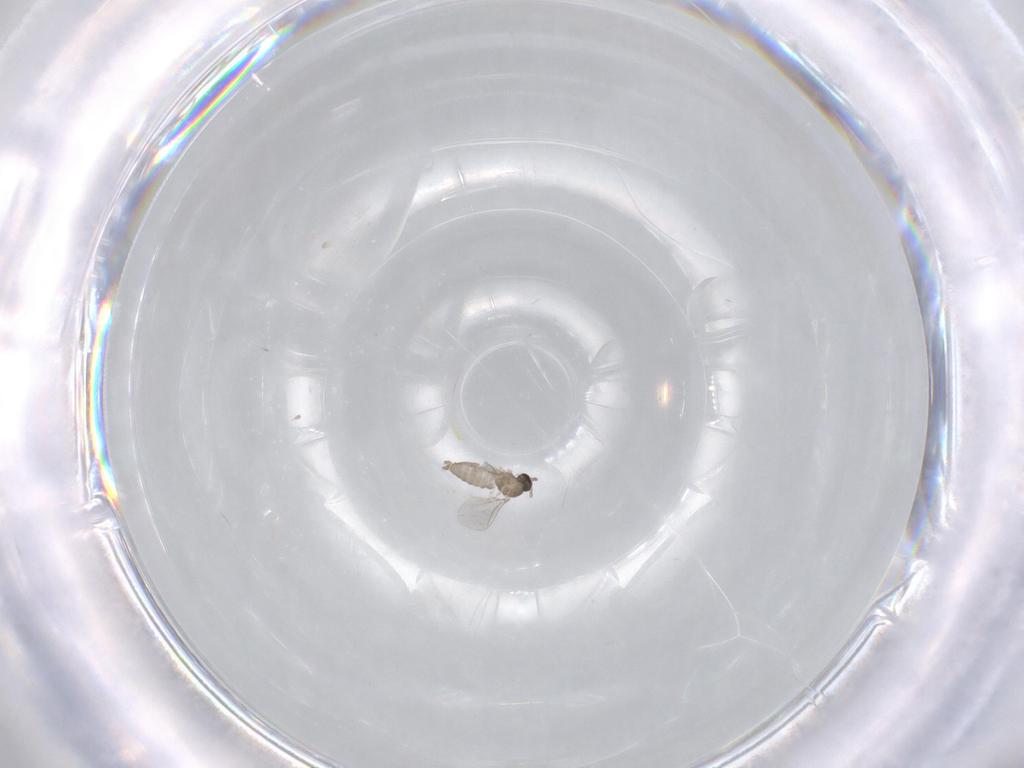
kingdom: Animalia
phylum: Arthropoda
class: Insecta
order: Diptera
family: Cecidomyiidae
